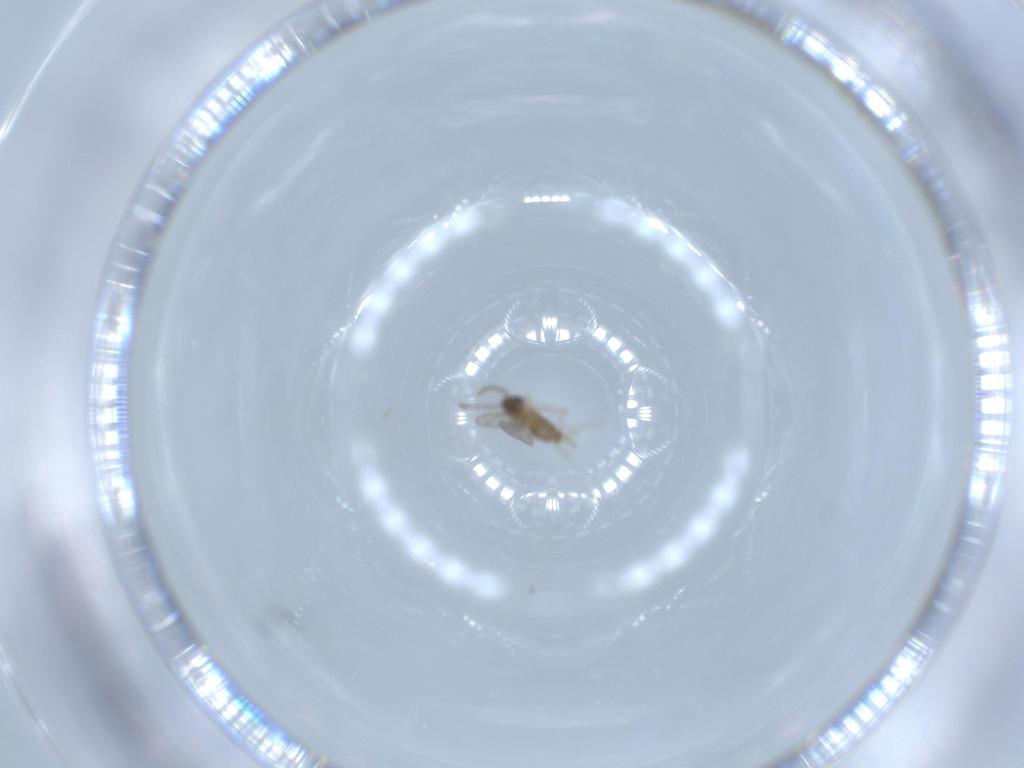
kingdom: Animalia
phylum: Arthropoda
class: Insecta
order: Diptera
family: Cecidomyiidae
